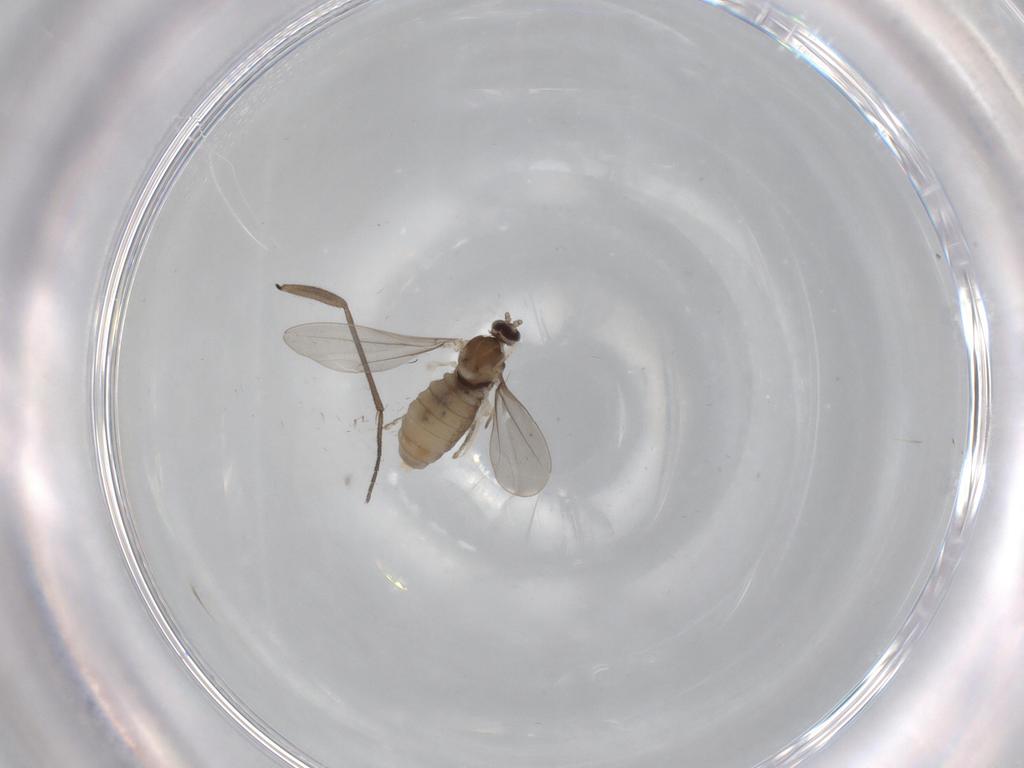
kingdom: Animalia
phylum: Arthropoda
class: Insecta
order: Diptera
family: Cecidomyiidae
